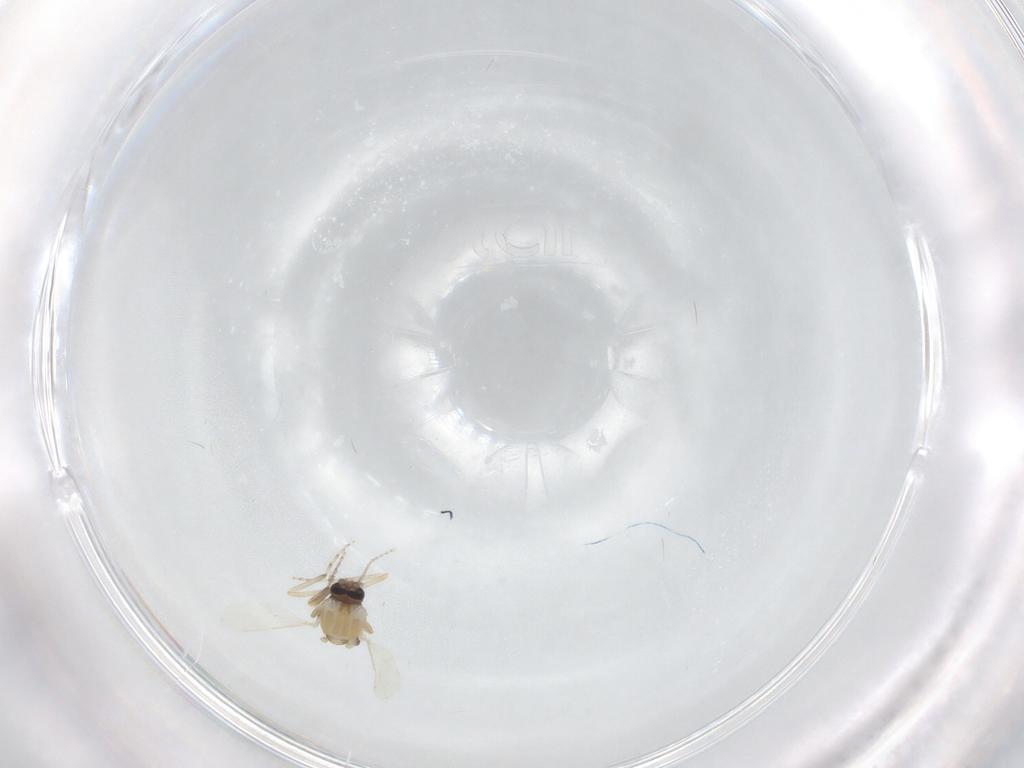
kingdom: Animalia
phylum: Arthropoda
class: Insecta
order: Diptera
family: Ceratopogonidae
